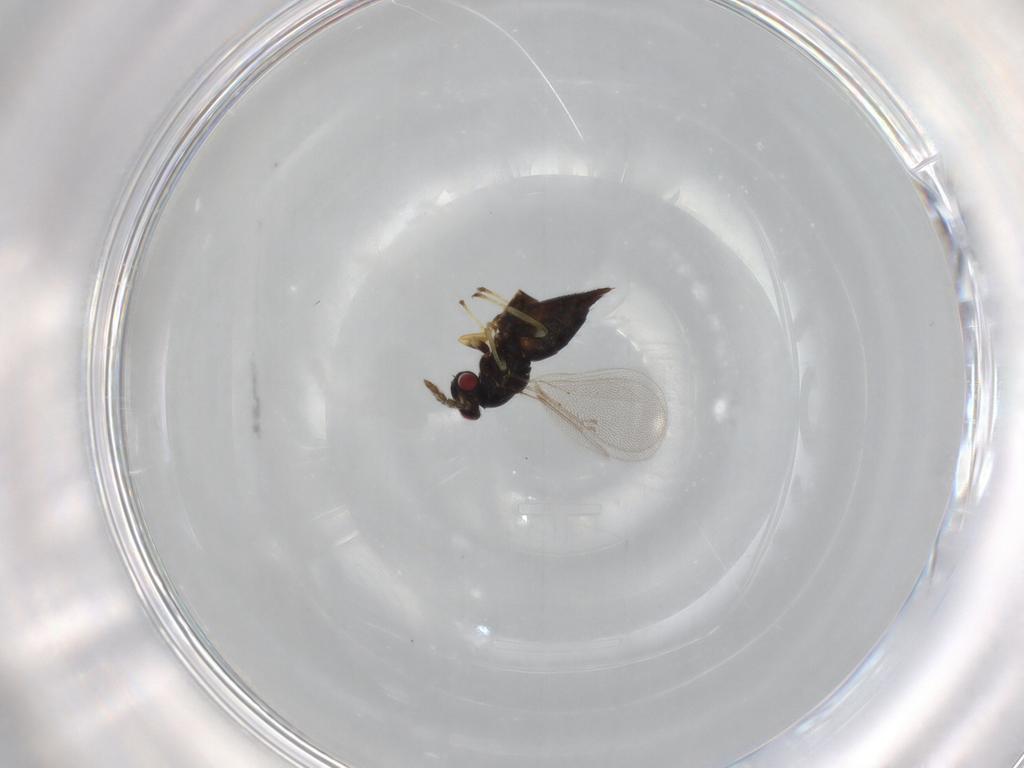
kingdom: Animalia
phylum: Arthropoda
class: Insecta
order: Hymenoptera
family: Eulophidae
